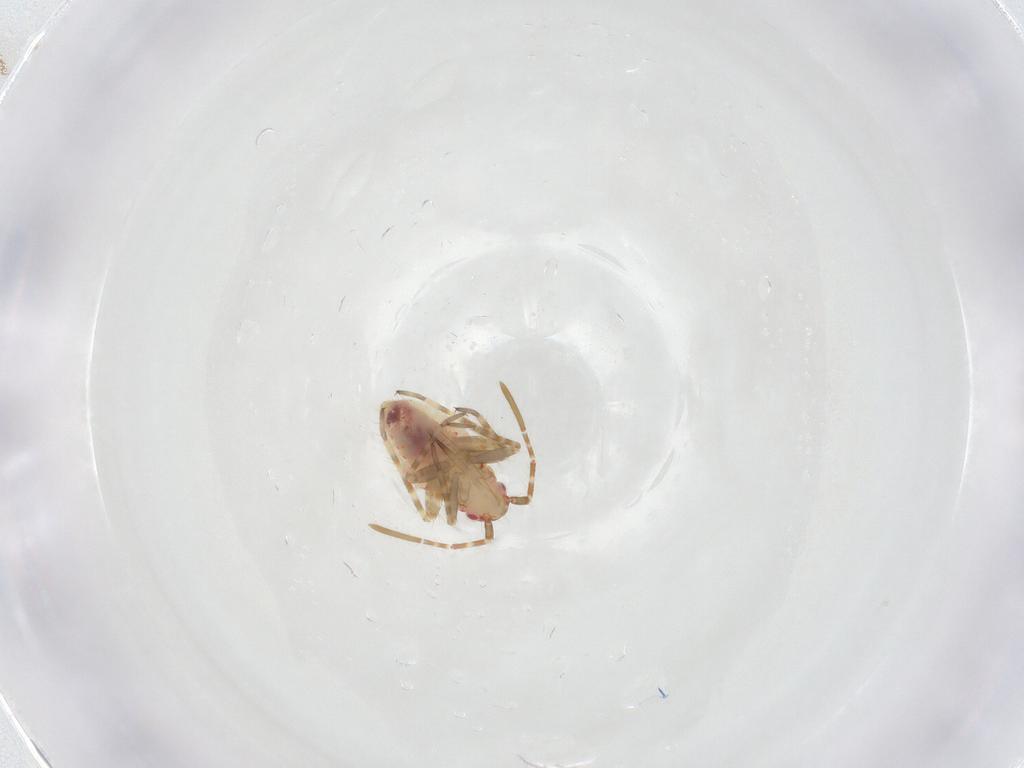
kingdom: Animalia
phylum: Arthropoda
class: Insecta
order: Hemiptera
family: Miridae
